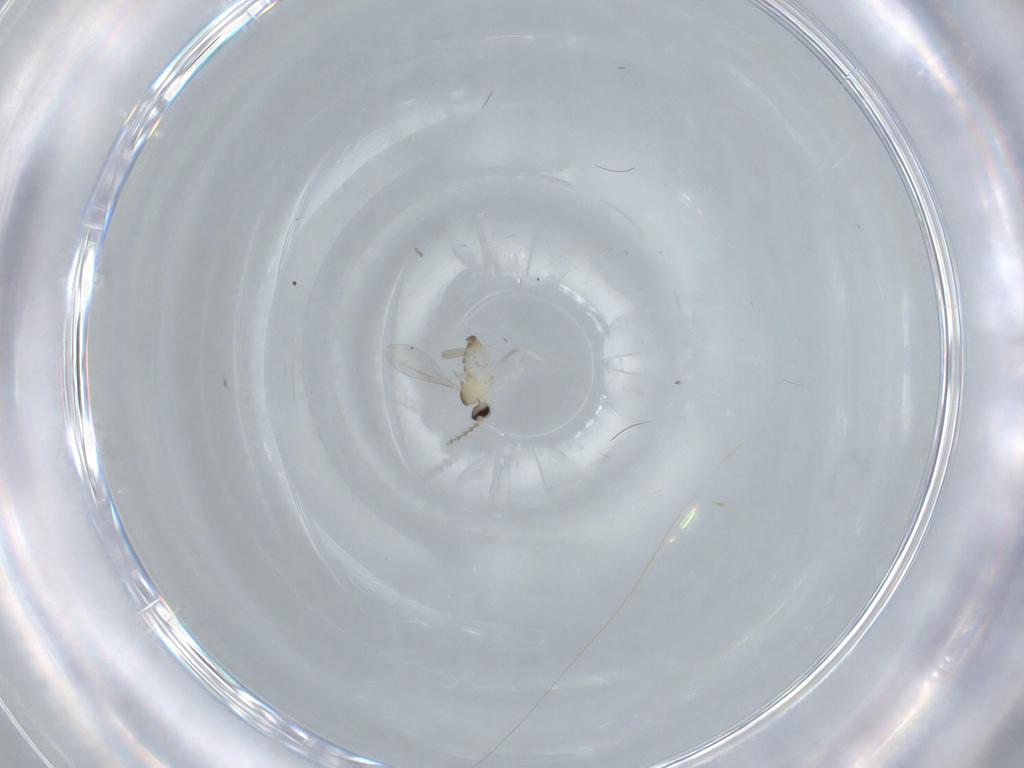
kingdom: Animalia
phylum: Arthropoda
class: Insecta
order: Diptera
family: Cecidomyiidae
